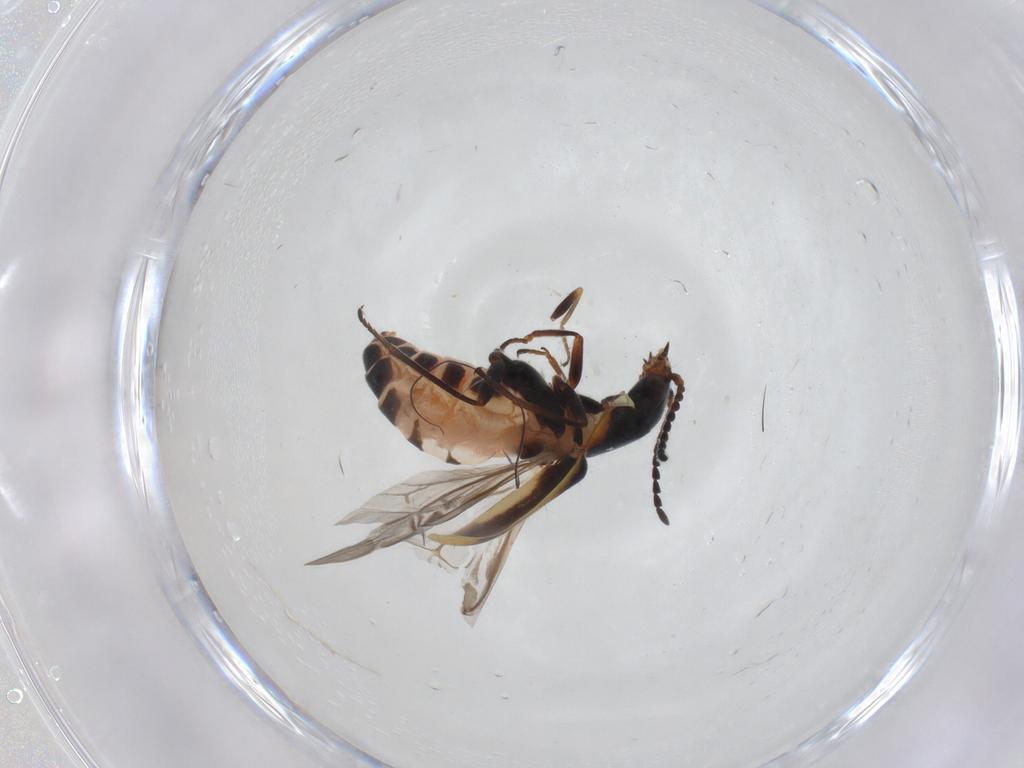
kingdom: Animalia
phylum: Arthropoda
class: Insecta
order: Coleoptera
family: Melyridae
